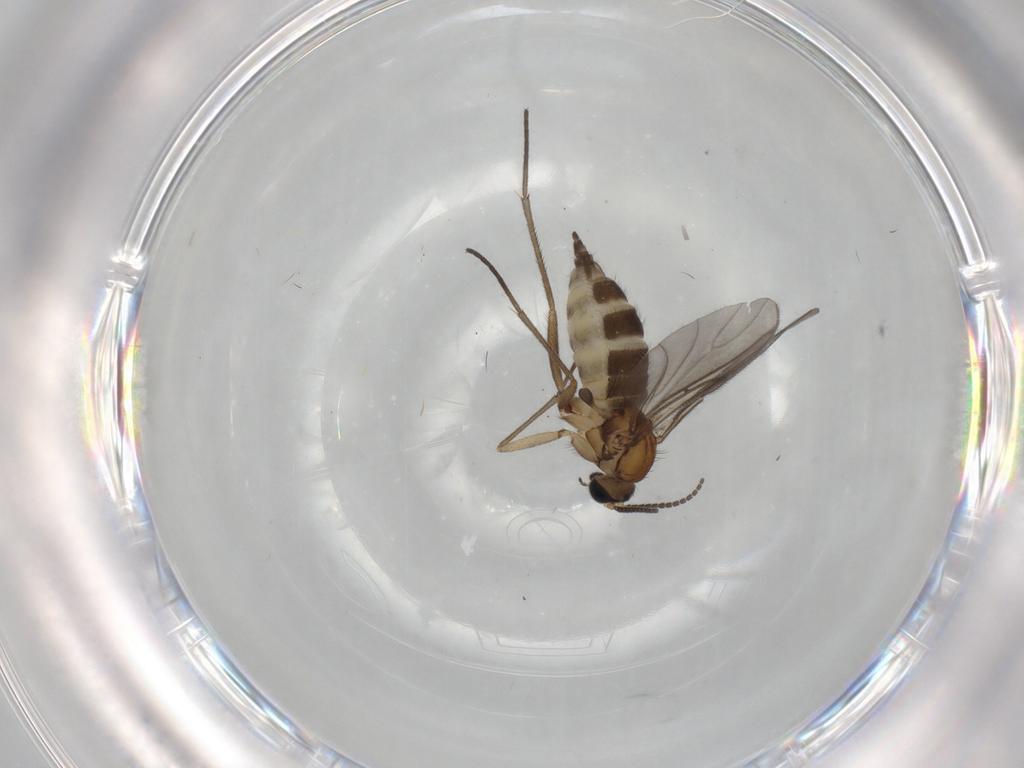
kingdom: Animalia
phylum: Arthropoda
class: Insecta
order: Diptera
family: Sciaridae
